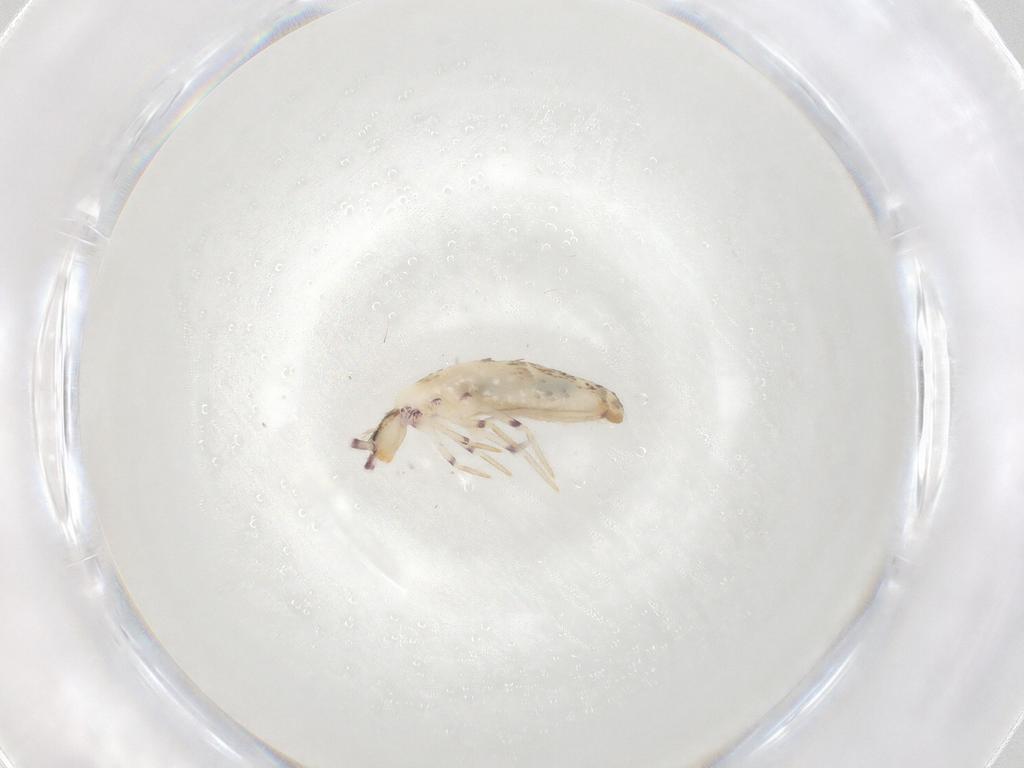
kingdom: Animalia
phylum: Arthropoda
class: Collembola
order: Entomobryomorpha
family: Entomobryidae
